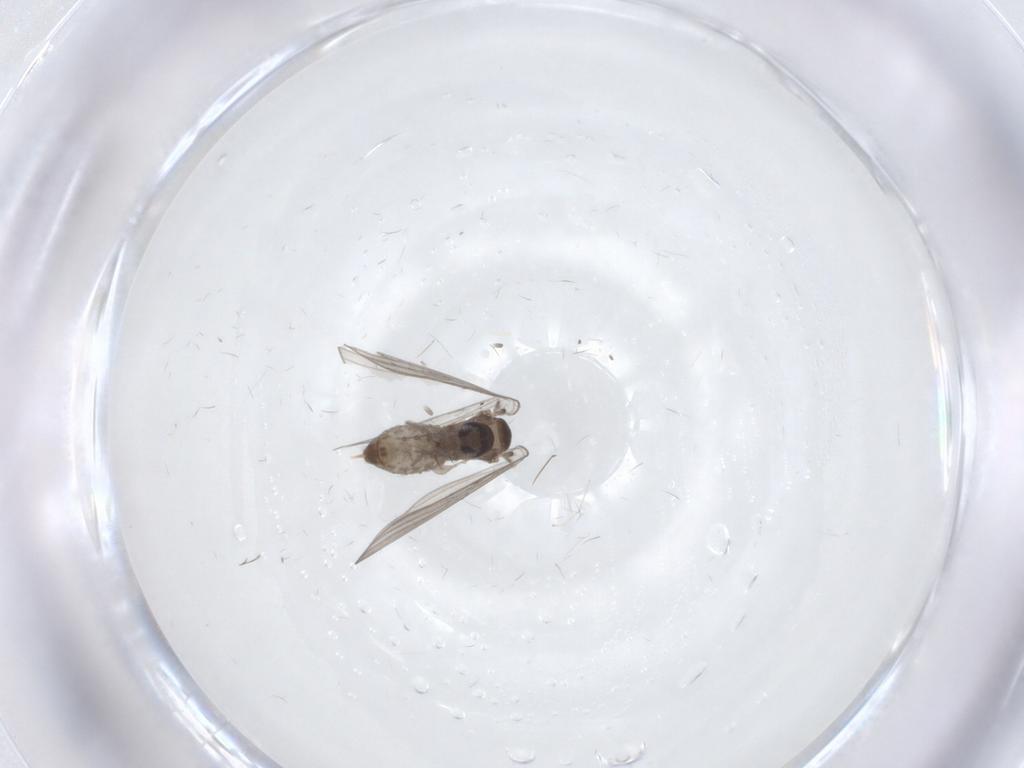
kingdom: Animalia
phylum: Arthropoda
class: Insecta
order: Diptera
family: Psychodidae
